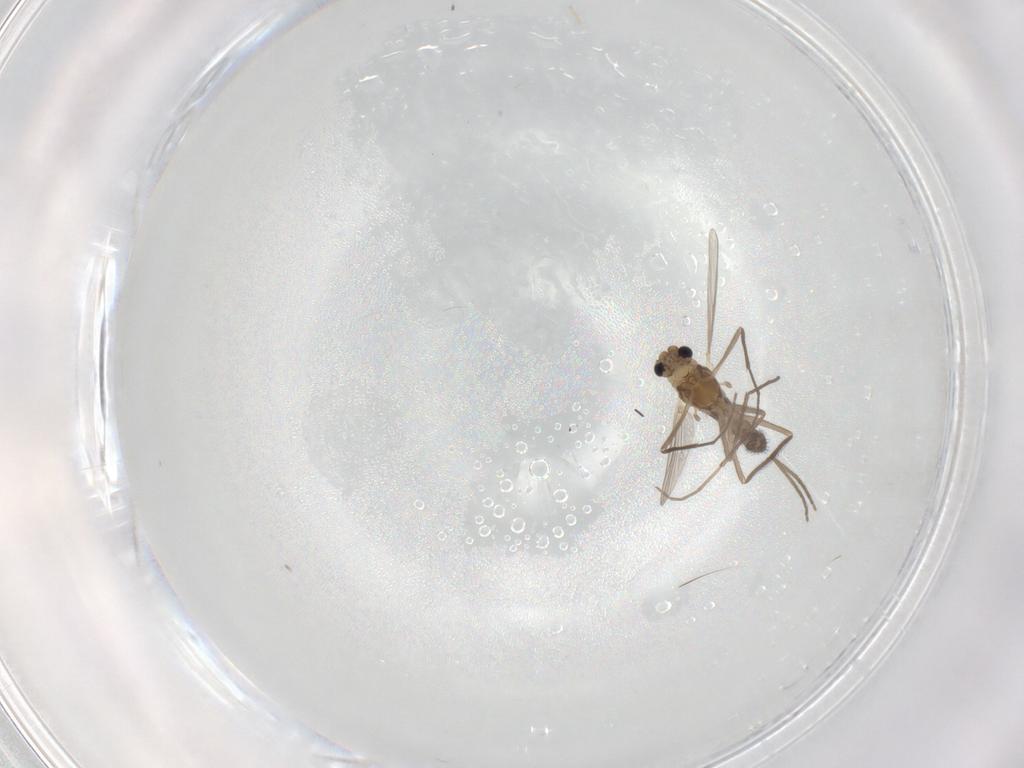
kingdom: Animalia
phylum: Arthropoda
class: Insecta
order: Diptera
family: Chironomidae
